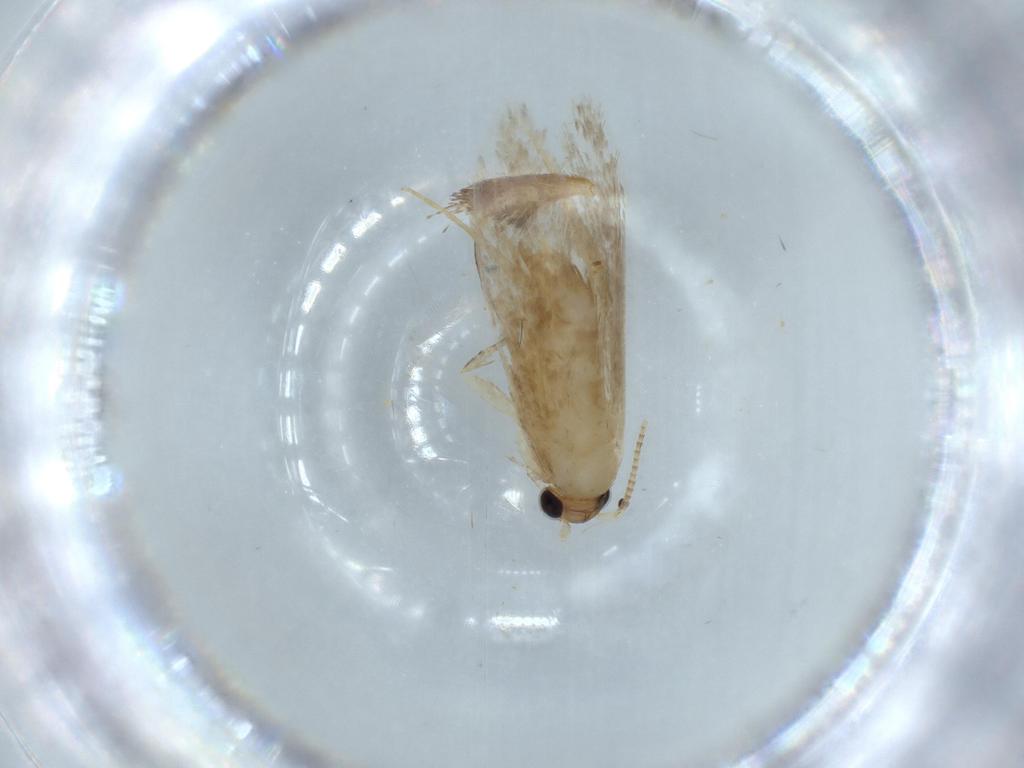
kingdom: Animalia
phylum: Arthropoda
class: Insecta
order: Lepidoptera
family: Tineidae
